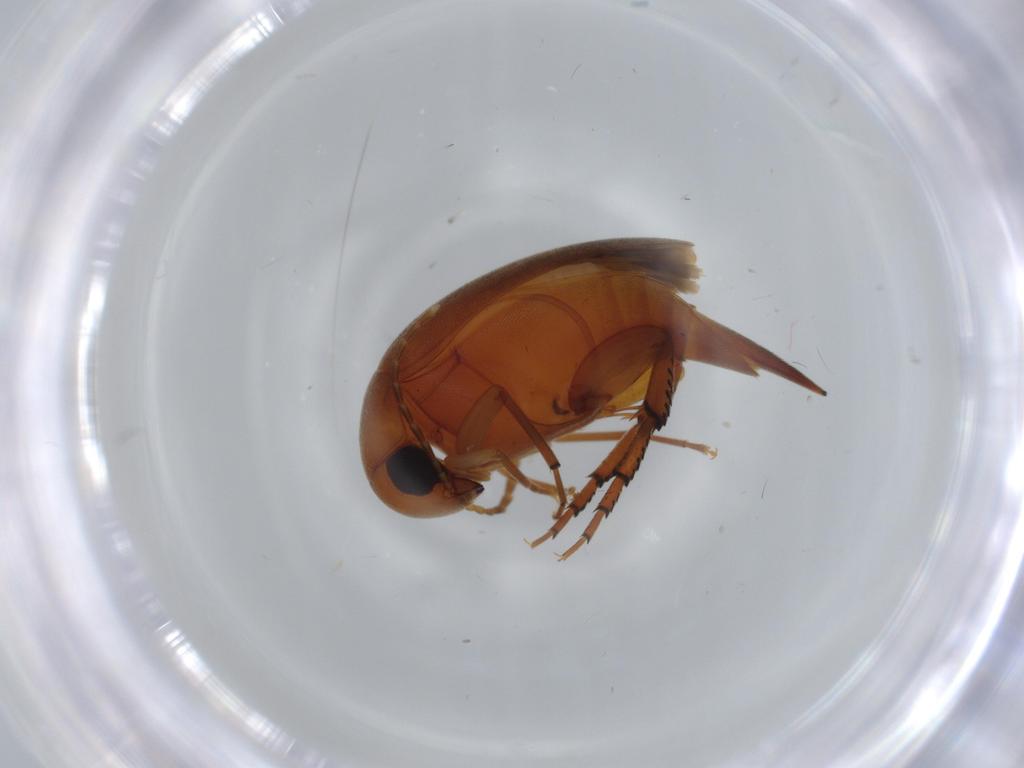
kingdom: Animalia
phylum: Arthropoda
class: Insecta
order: Coleoptera
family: Mordellidae
